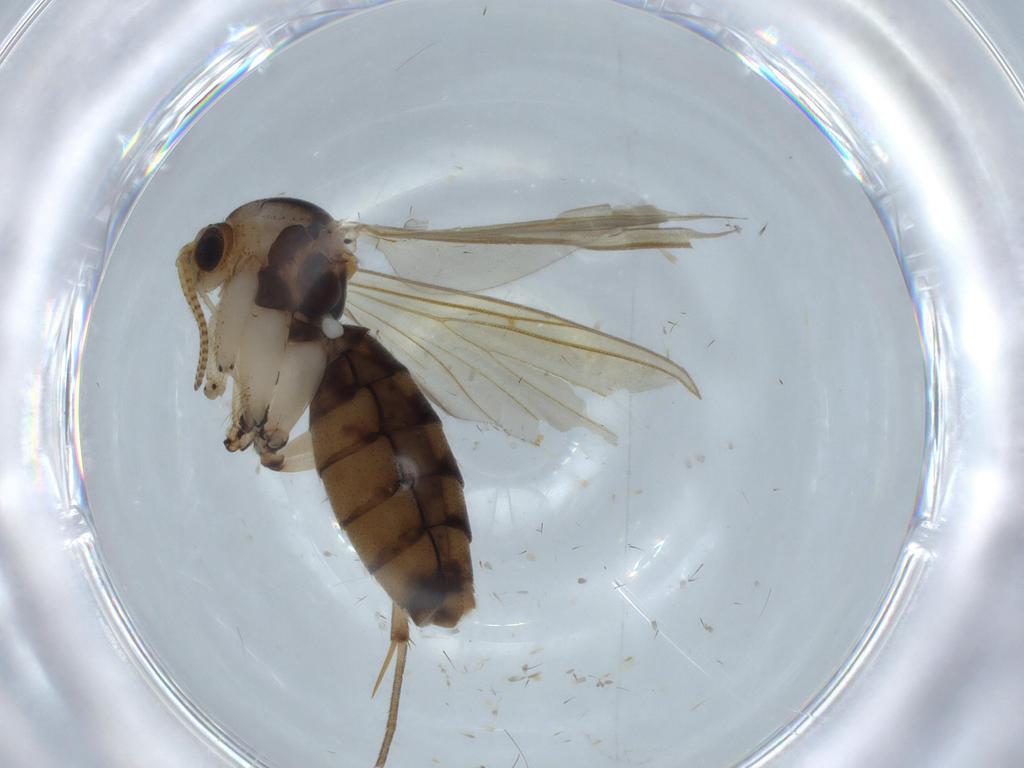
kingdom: Animalia
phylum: Arthropoda
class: Insecta
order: Diptera
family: Mycetophilidae
